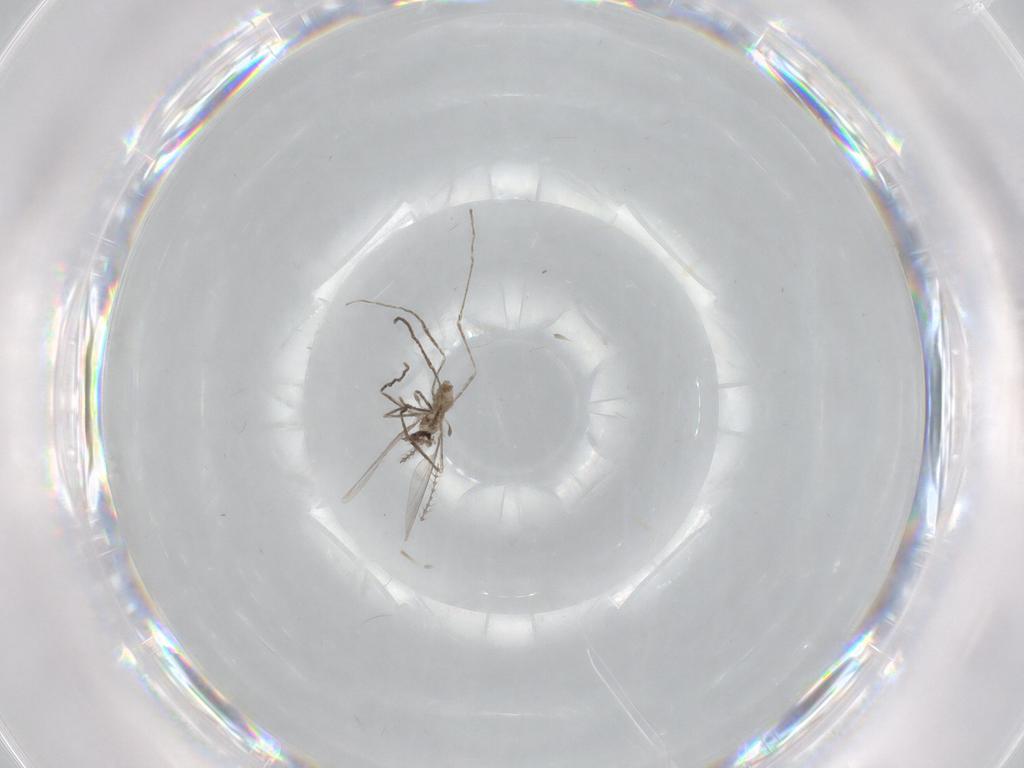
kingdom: Animalia
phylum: Arthropoda
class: Insecta
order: Diptera
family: Cecidomyiidae
